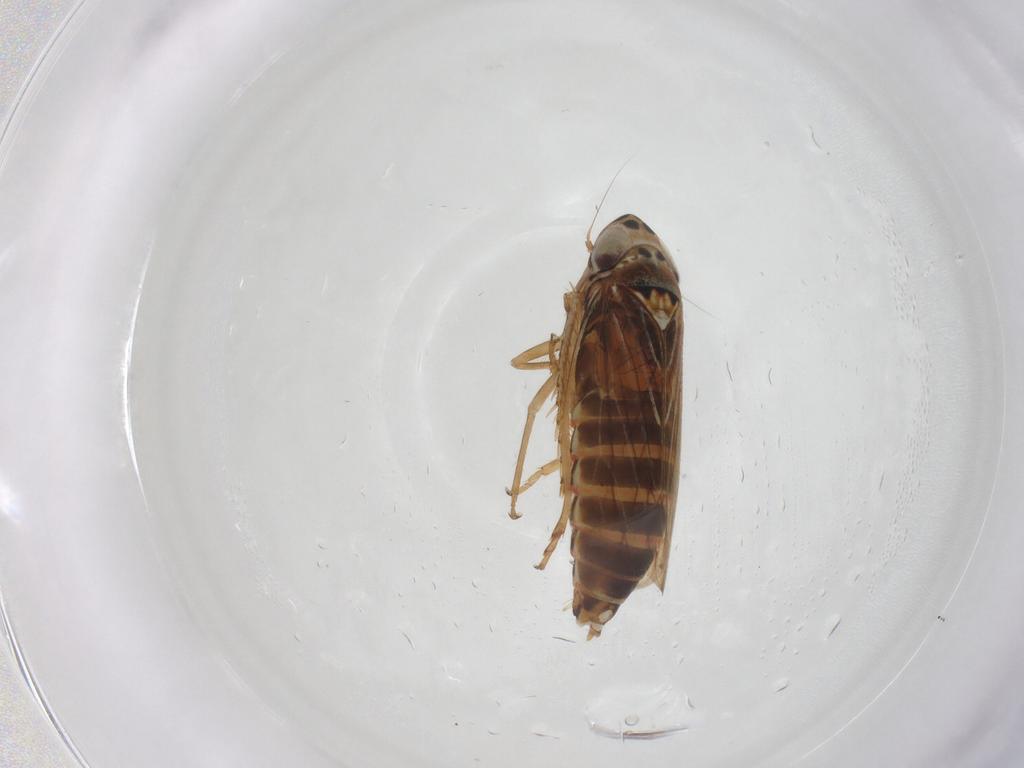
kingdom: Animalia
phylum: Arthropoda
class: Insecta
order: Hemiptera
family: Cicadellidae
